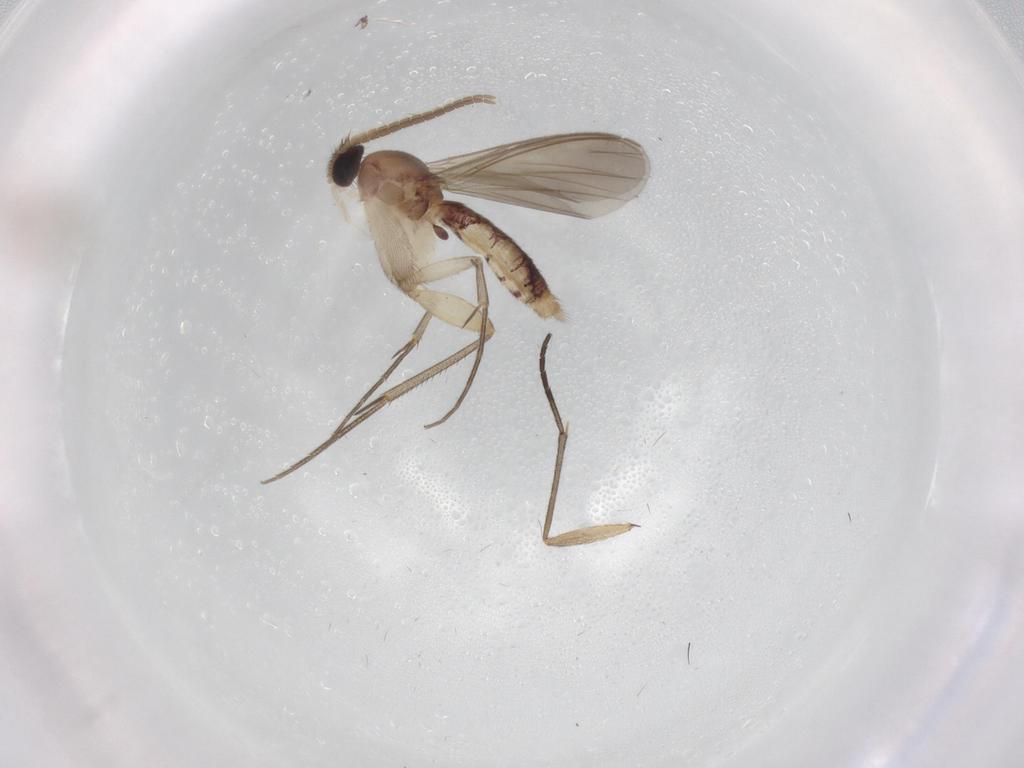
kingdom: Animalia
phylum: Arthropoda
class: Insecta
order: Diptera
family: Mycetophilidae
